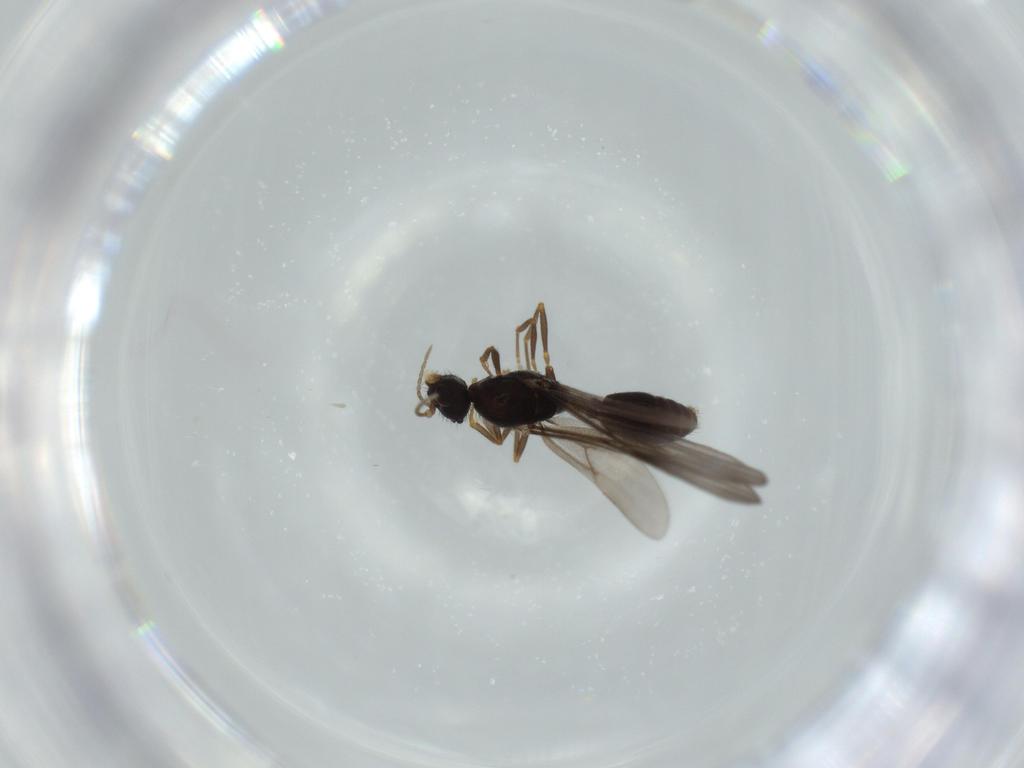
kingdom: Animalia
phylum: Arthropoda
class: Insecta
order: Hymenoptera
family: Formicidae
